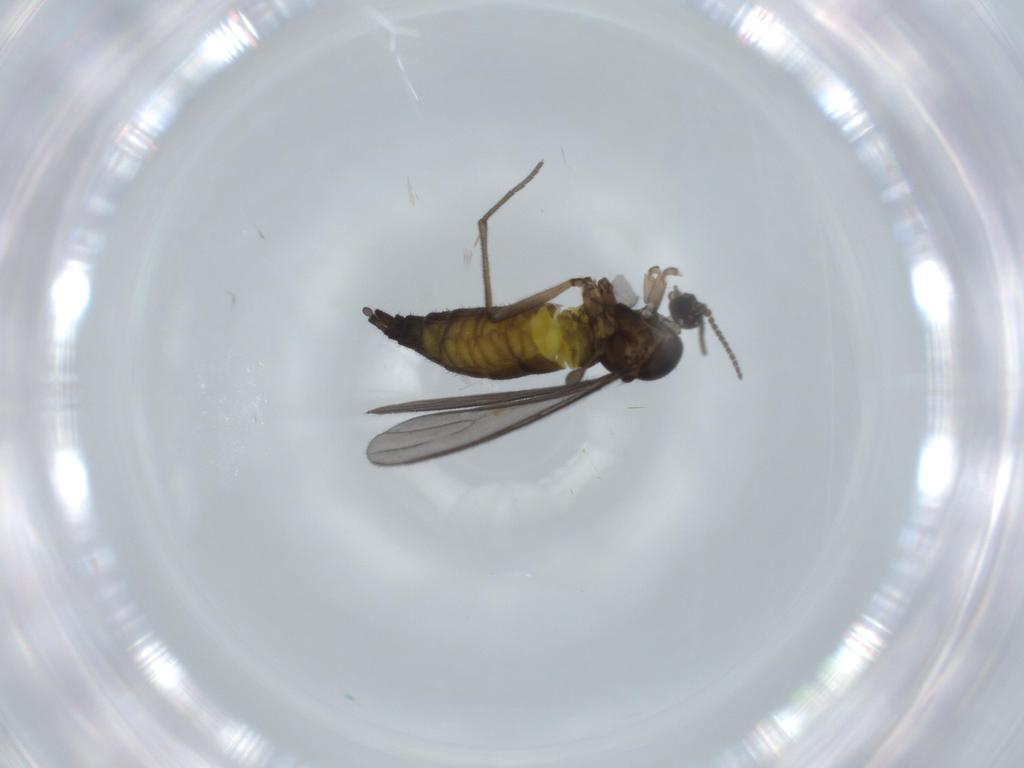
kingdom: Animalia
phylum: Arthropoda
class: Insecta
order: Diptera
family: Sciaridae
